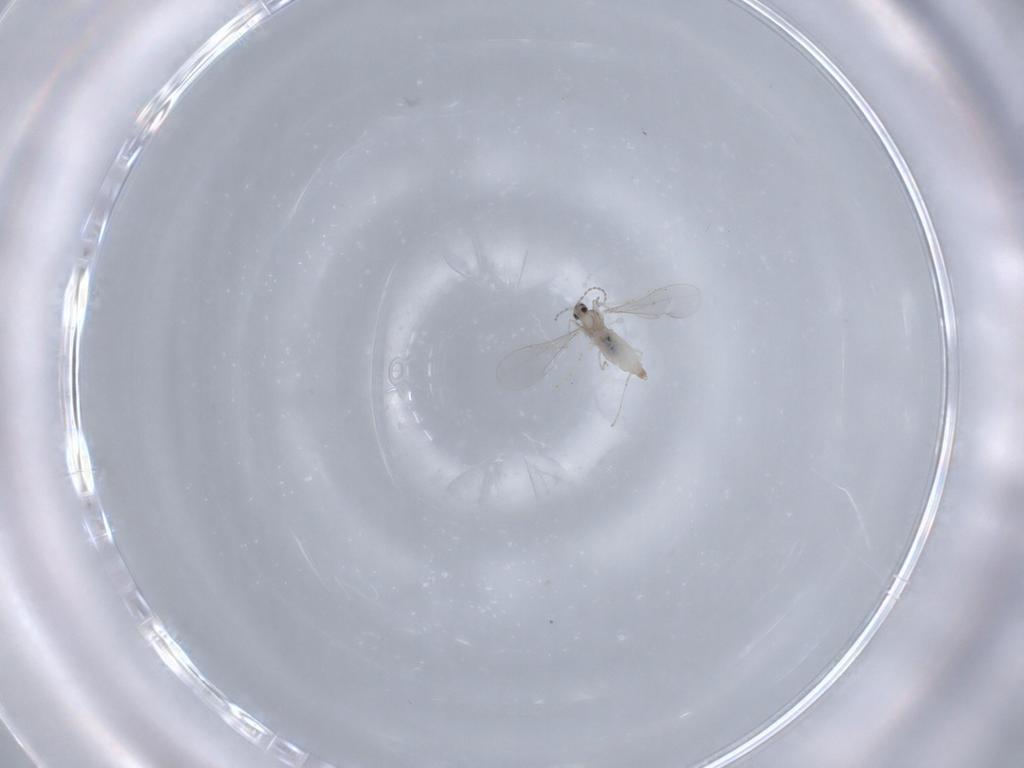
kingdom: Animalia
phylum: Arthropoda
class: Insecta
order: Diptera
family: Cecidomyiidae
